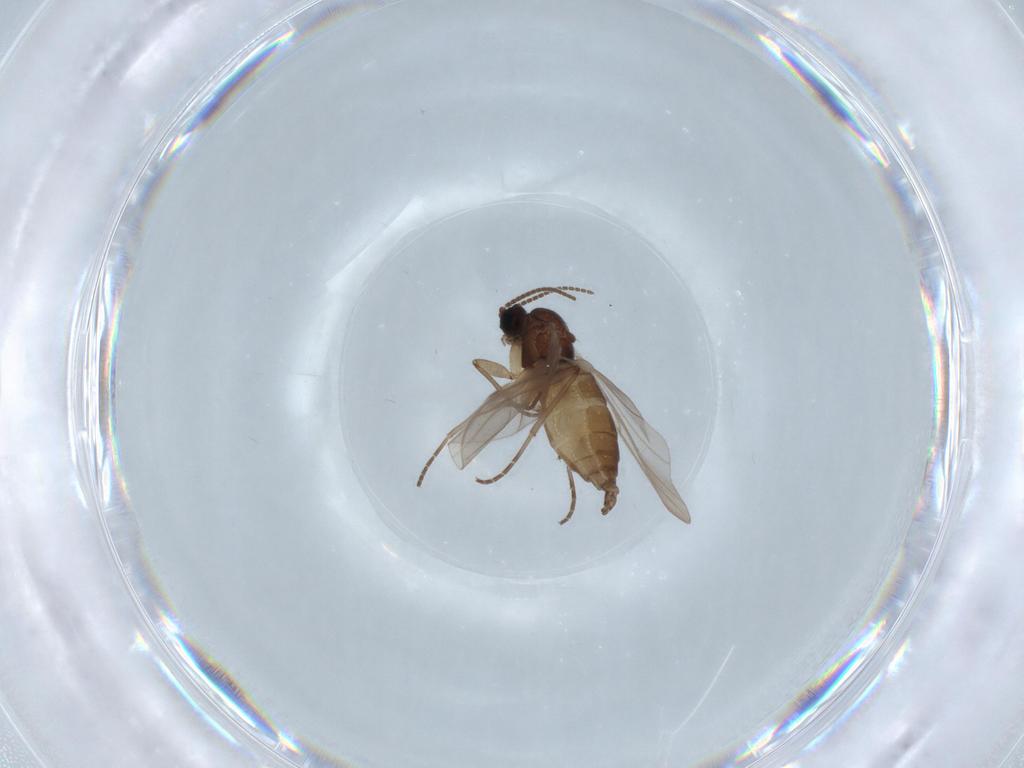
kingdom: Animalia
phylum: Arthropoda
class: Insecta
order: Diptera
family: Sciaridae
